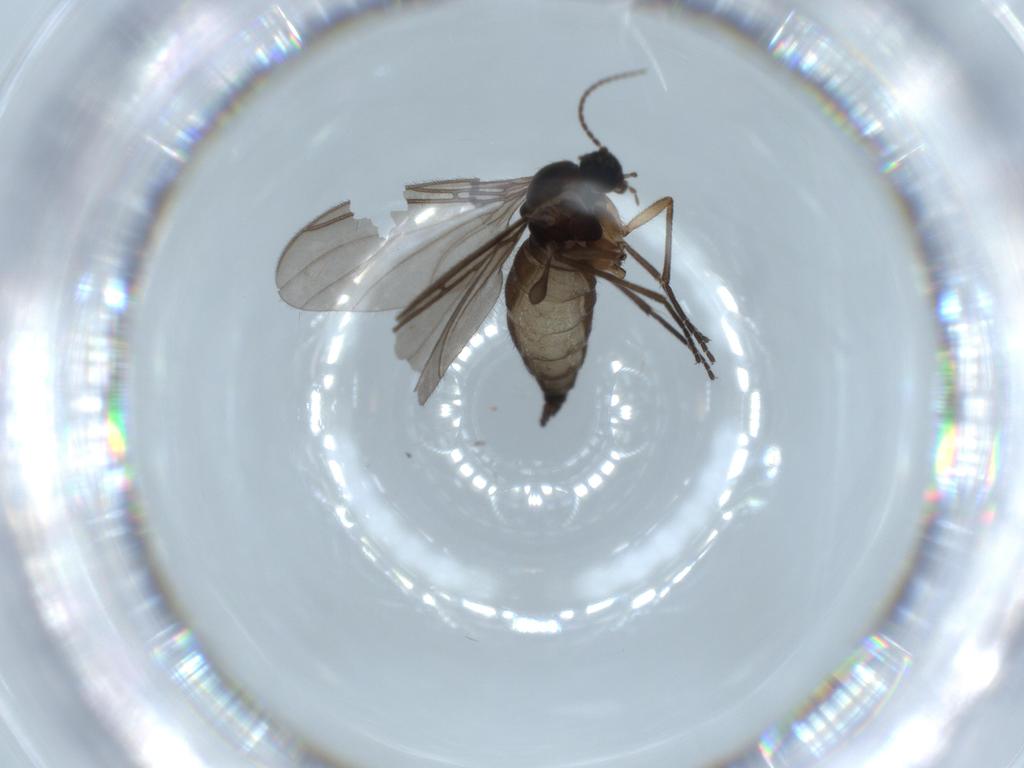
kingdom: Animalia
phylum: Arthropoda
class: Insecta
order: Diptera
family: Sciaridae
